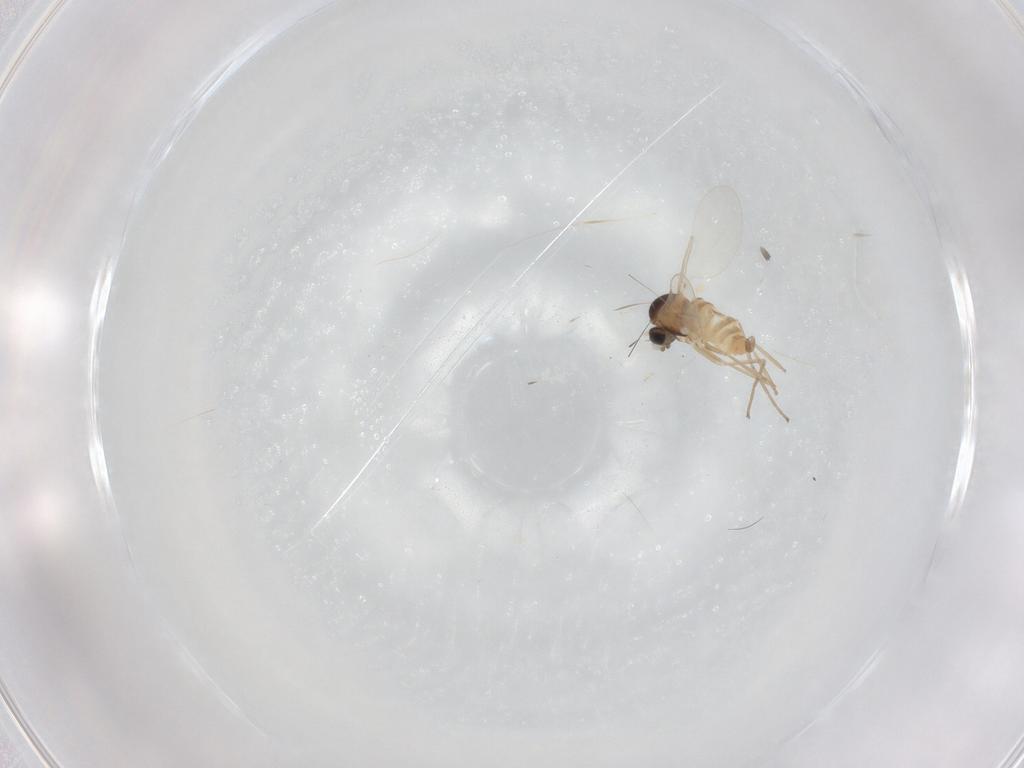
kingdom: Animalia
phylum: Arthropoda
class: Insecta
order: Diptera
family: Cecidomyiidae
